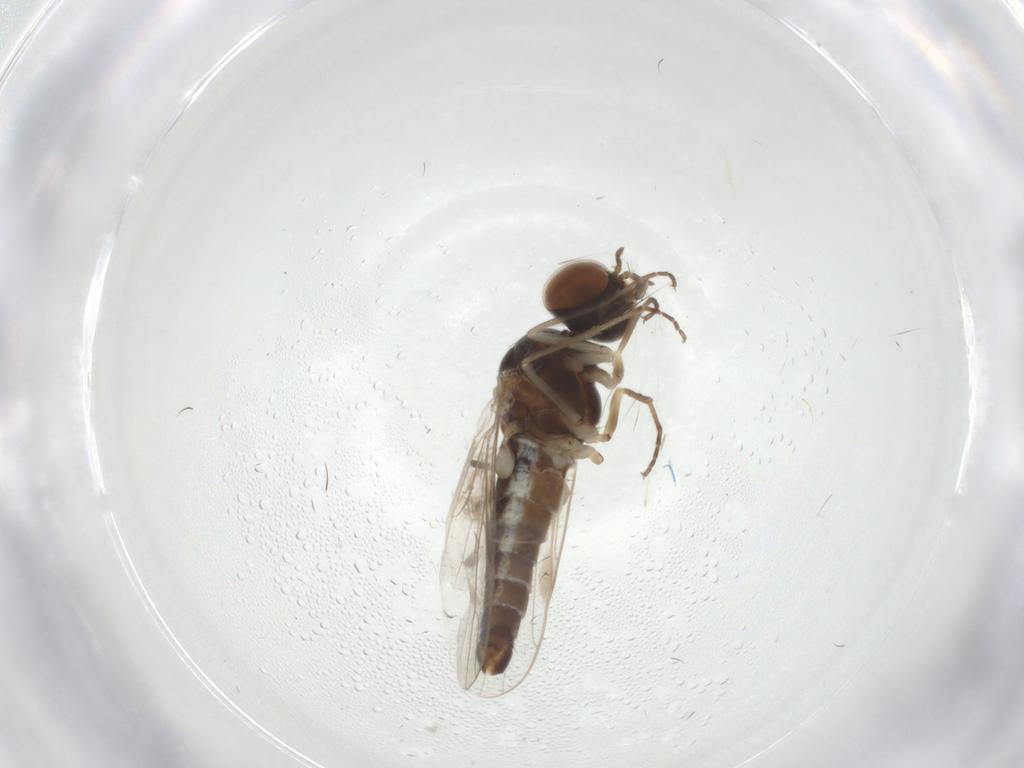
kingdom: Animalia
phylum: Arthropoda
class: Insecta
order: Diptera
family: Scenopinidae
